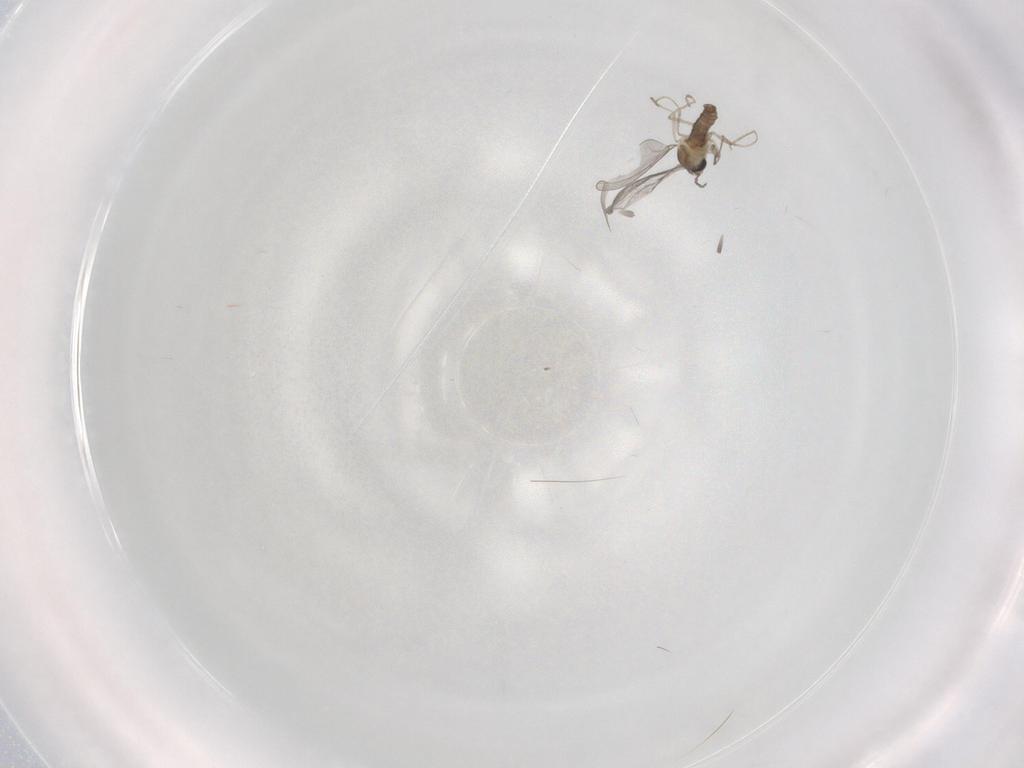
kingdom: Animalia
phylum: Arthropoda
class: Insecta
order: Diptera
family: Cecidomyiidae
